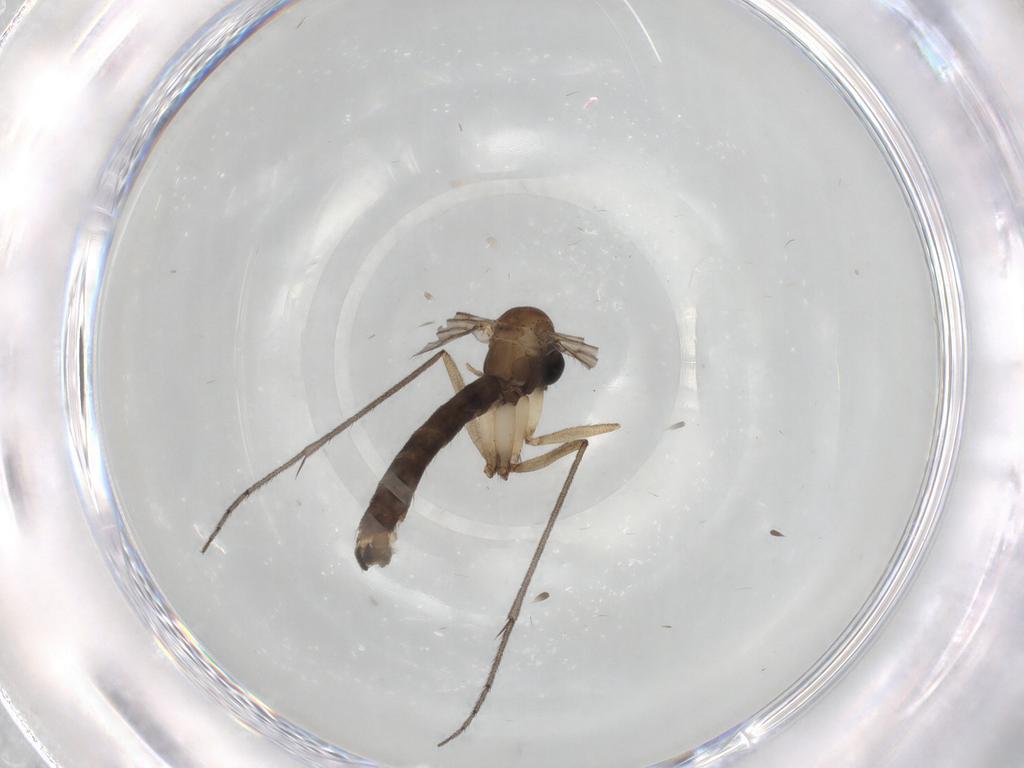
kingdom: Animalia
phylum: Arthropoda
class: Insecta
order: Diptera
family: Ditomyiidae
